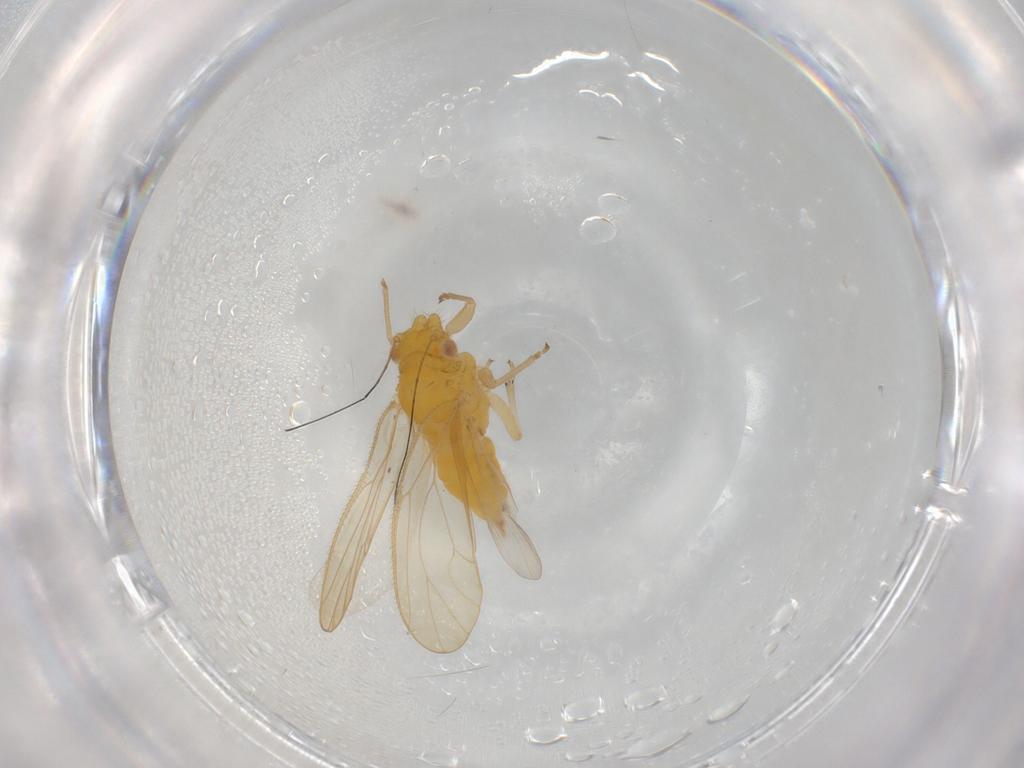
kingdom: Animalia
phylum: Arthropoda
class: Insecta
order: Hemiptera
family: Psyllidae
